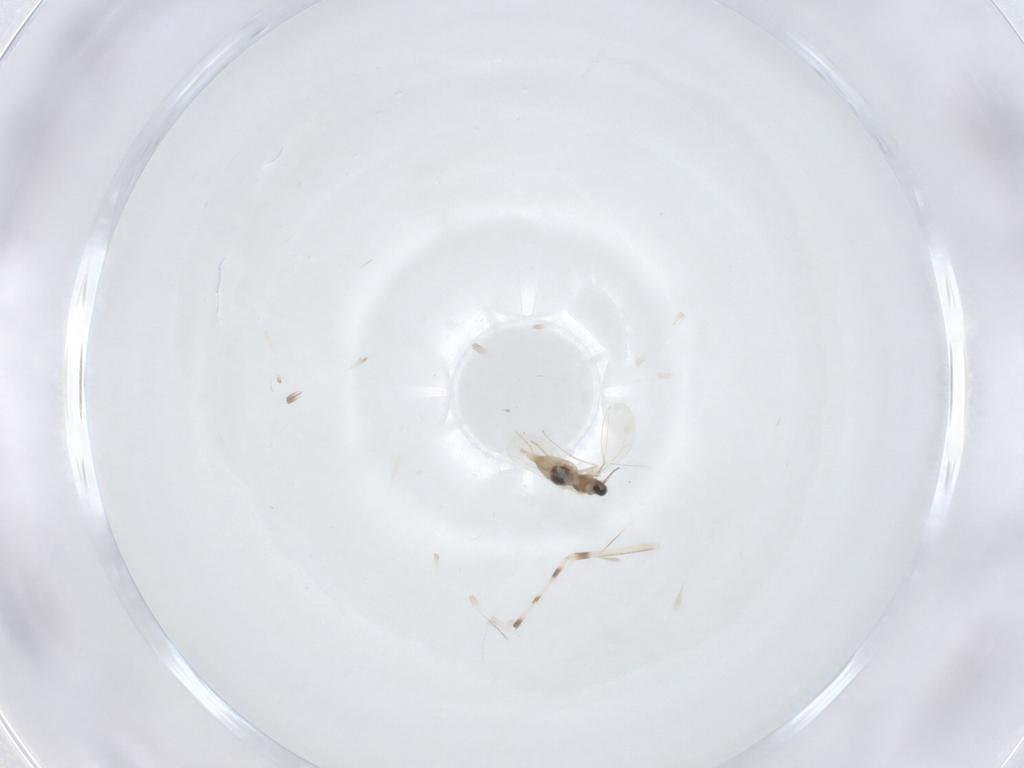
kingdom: Animalia
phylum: Arthropoda
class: Insecta
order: Diptera
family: Chironomidae
